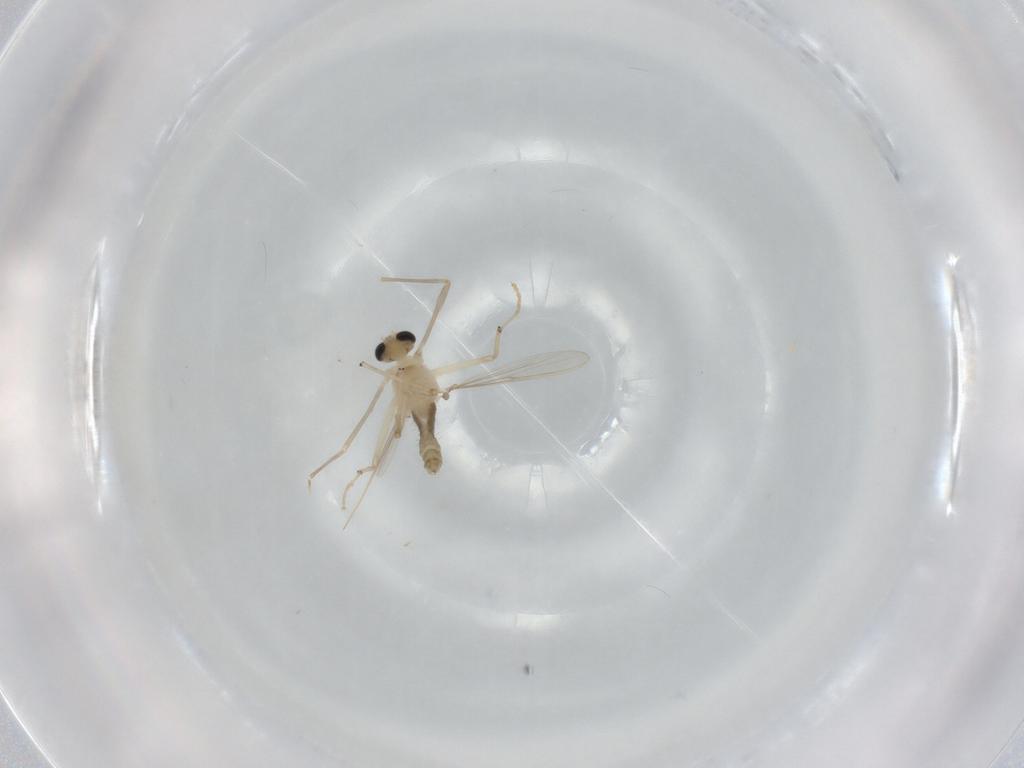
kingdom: Animalia
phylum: Arthropoda
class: Insecta
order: Diptera
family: Chironomidae
